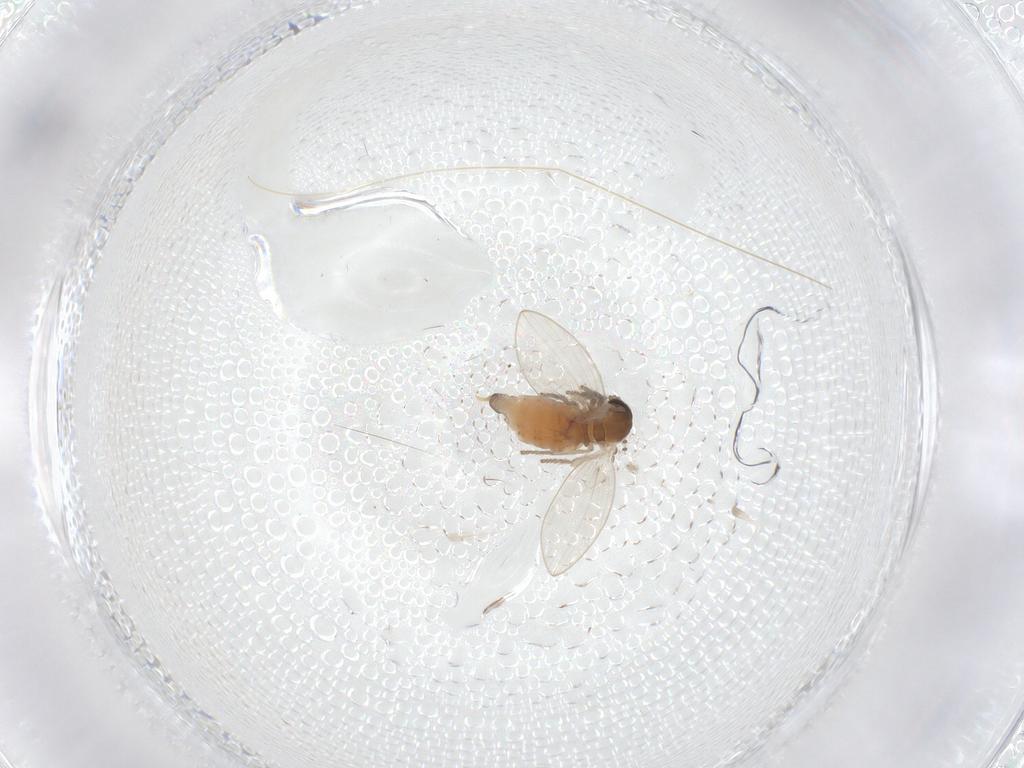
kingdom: Animalia
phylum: Arthropoda
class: Insecta
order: Diptera
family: Psychodidae
